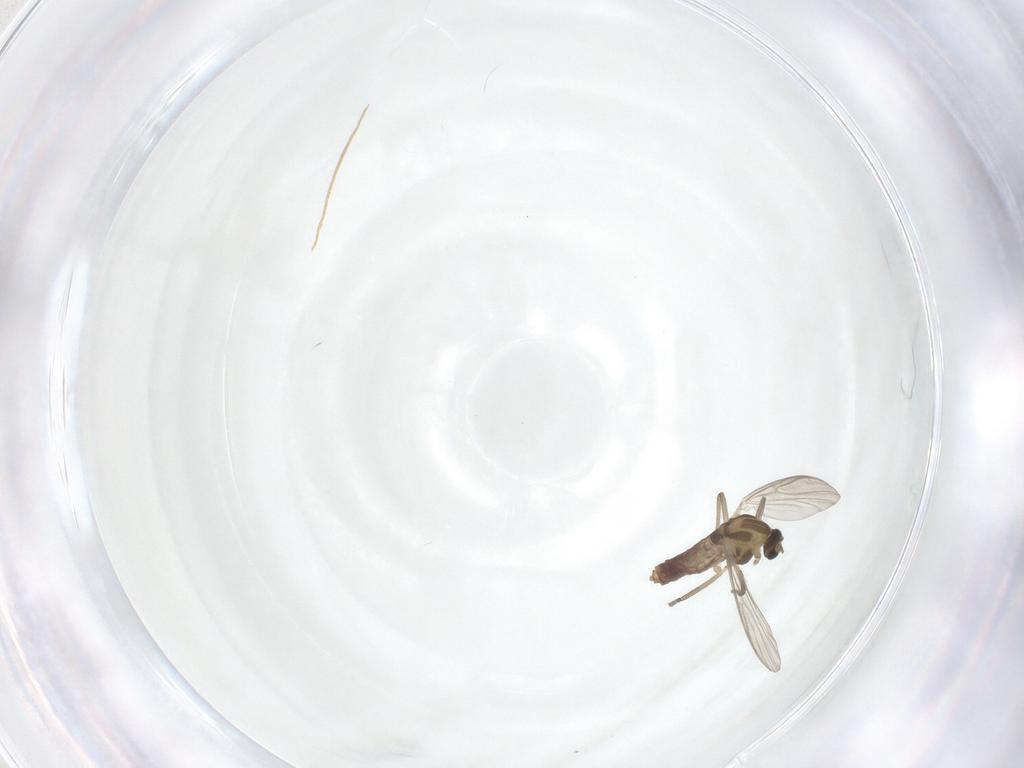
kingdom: Animalia
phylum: Arthropoda
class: Insecta
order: Diptera
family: Chironomidae
